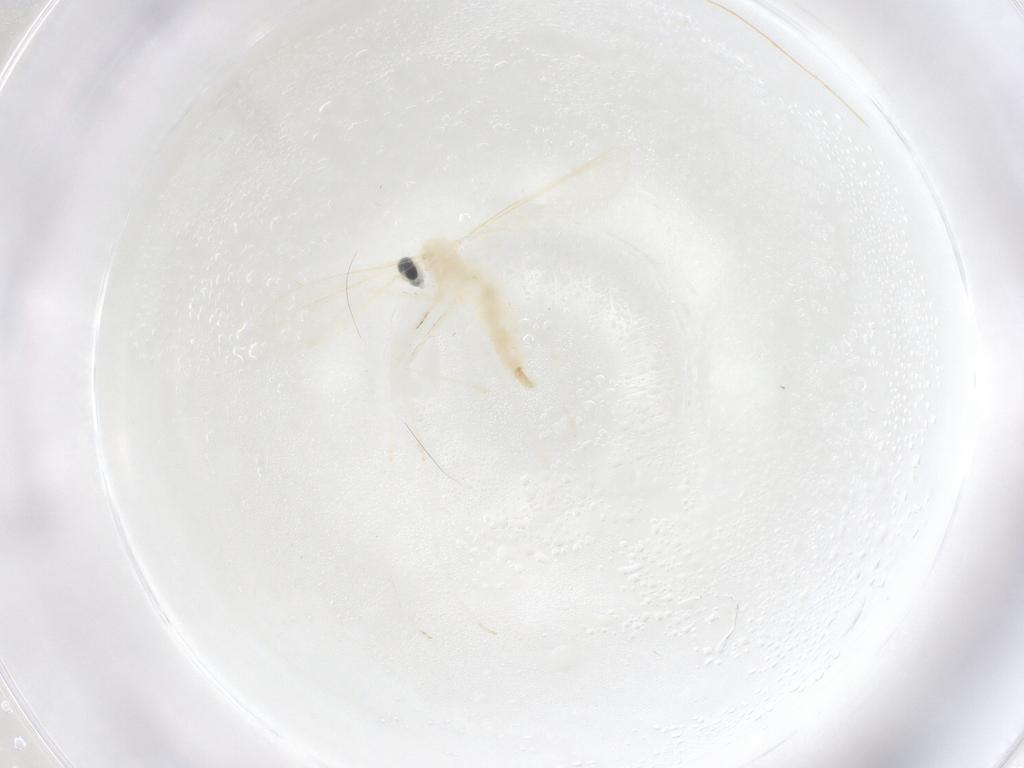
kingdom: Animalia
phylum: Arthropoda
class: Insecta
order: Diptera
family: Cecidomyiidae
